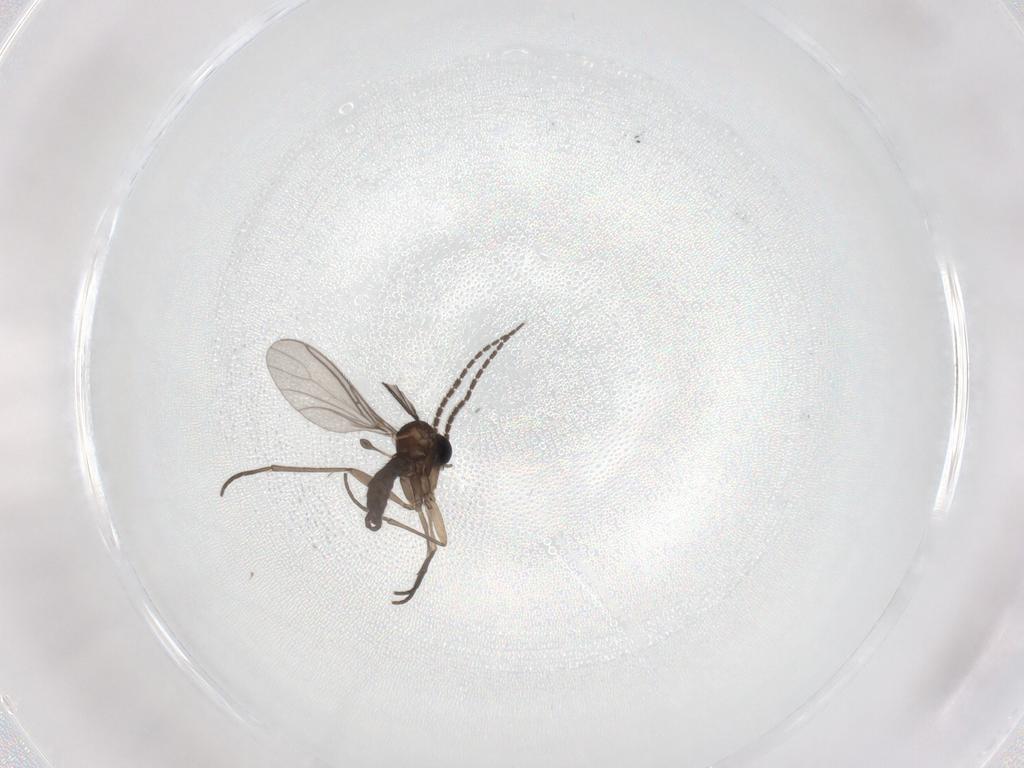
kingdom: Animalia
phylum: Arthropoda
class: Insecta
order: Diptera
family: Sciaridae
